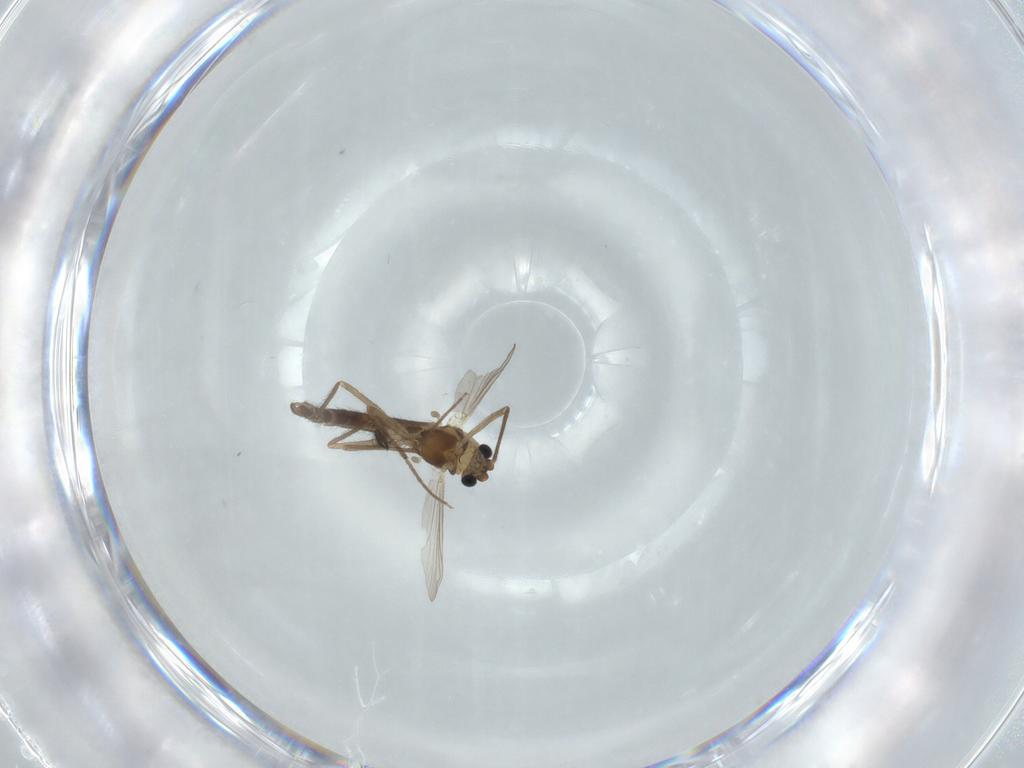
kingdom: Animalia
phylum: Arthropoda
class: Insecta
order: Diptera
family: Chironomidae
